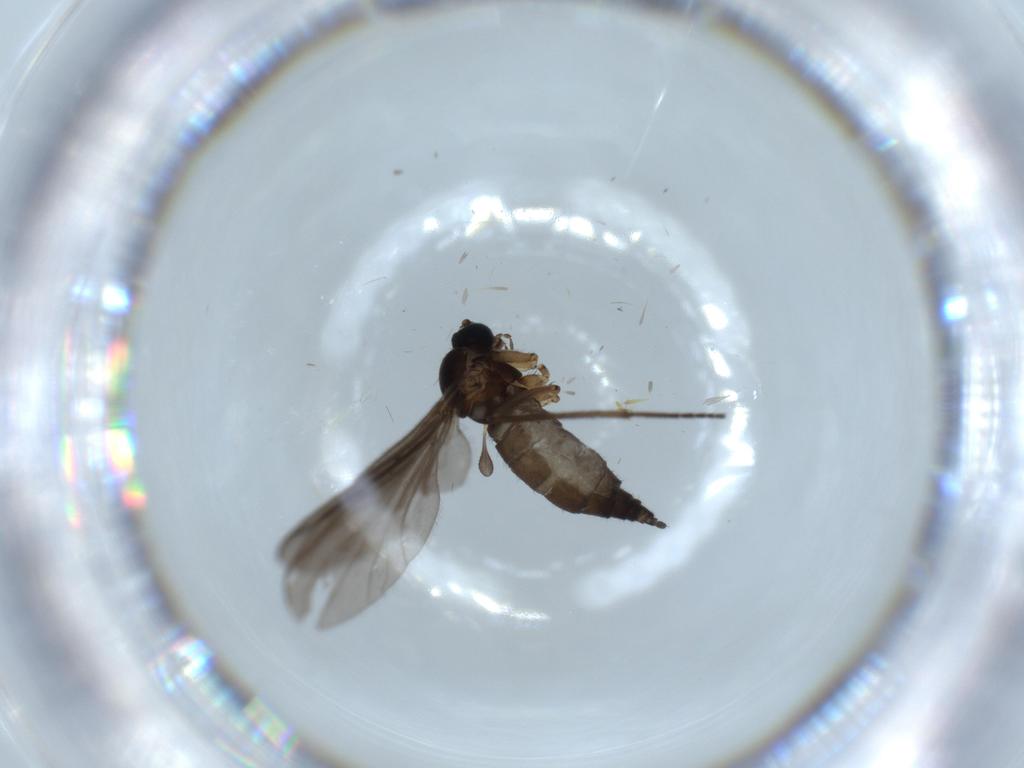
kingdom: Animalia
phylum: Arthropoda
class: Insecta
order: Diptera
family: Sciaridae
